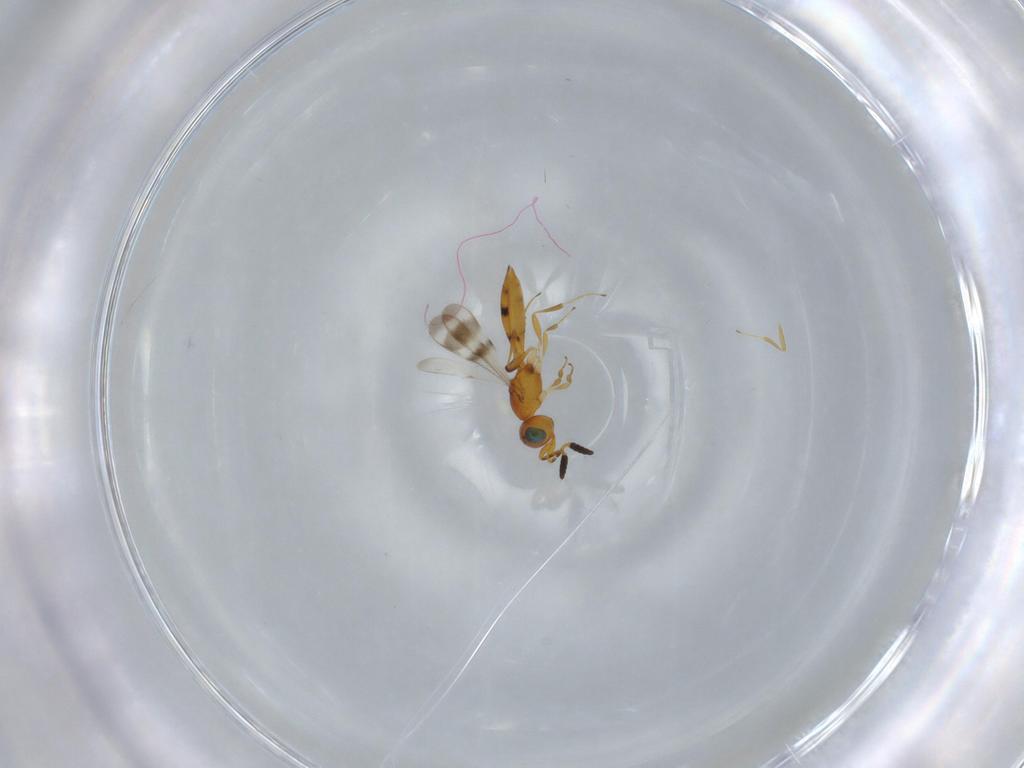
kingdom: Animalia
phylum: Arthropoda
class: Insecta
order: Hymenoptera
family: Scelionidae
